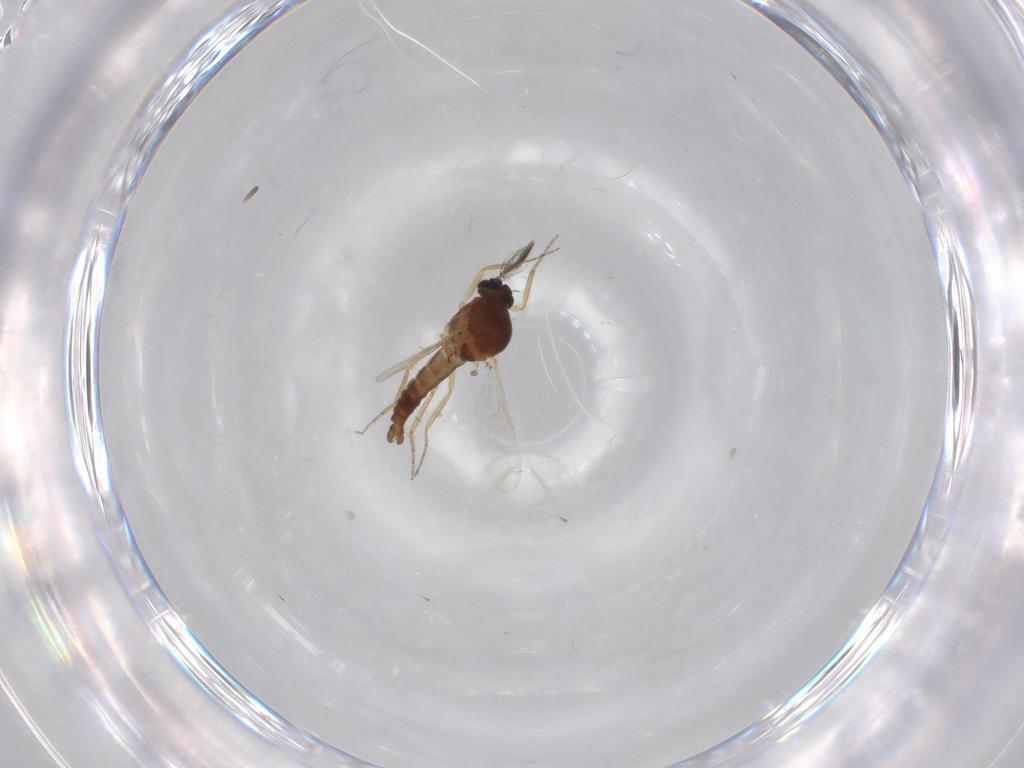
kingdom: Animalia
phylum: Arthropoda
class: Insecta
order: Diptera
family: Ceratopogonidae
